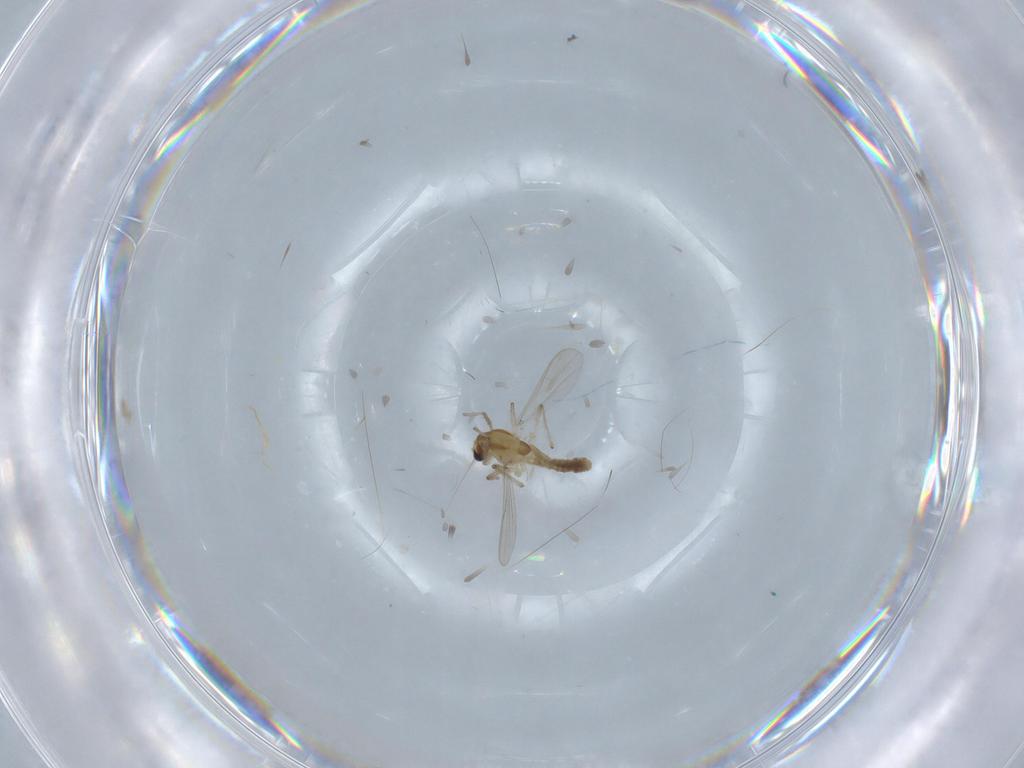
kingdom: Animalia
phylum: Arthropoda
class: Insecta
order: Diptera
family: Chironomidae
